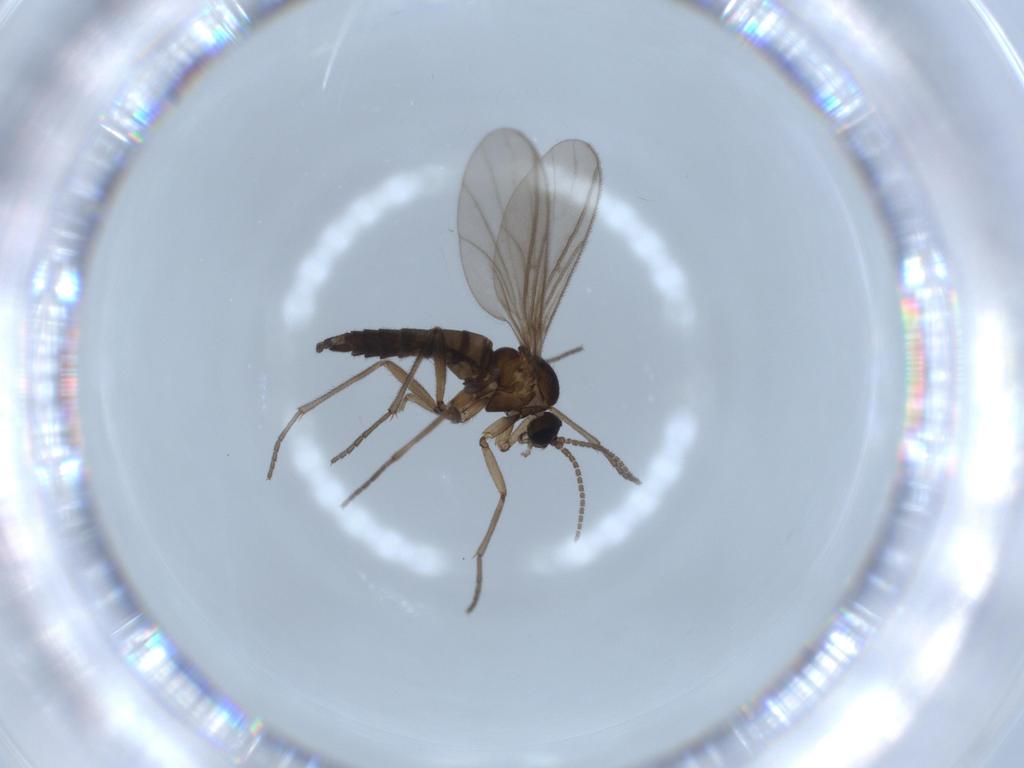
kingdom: Animalia
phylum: Arthropoda
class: Insecta
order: Diptera
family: Sciaridae
